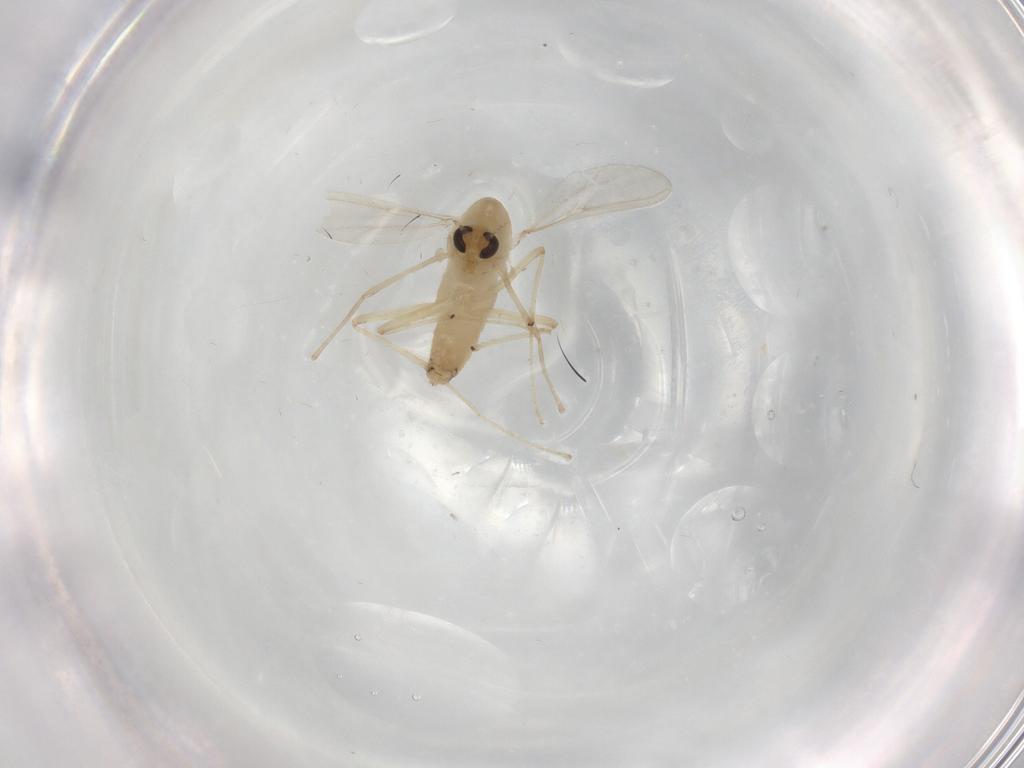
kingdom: Animalia
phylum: Arthropoda
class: Insecta
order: Diptera
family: Chironomidae
